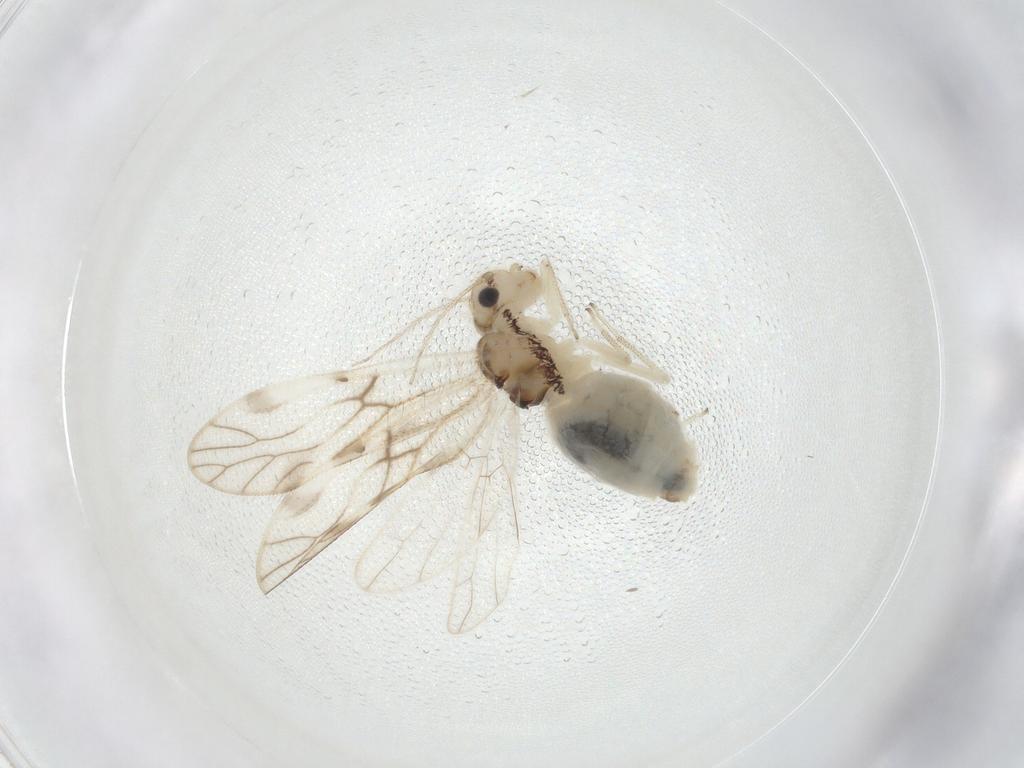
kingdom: Animalia
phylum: Arthropoda
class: Insecta
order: Psocodea
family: Caeciliusidae
